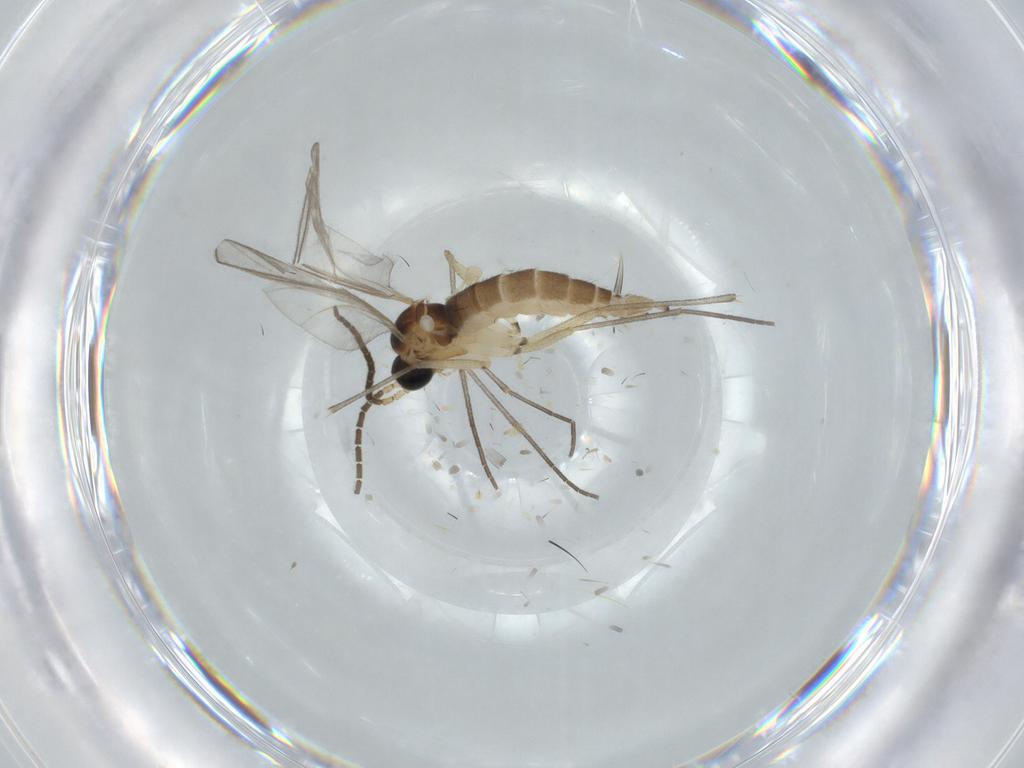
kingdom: Animalia
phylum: Arthropoda
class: Insecta
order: Diptera
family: Sciaridae
